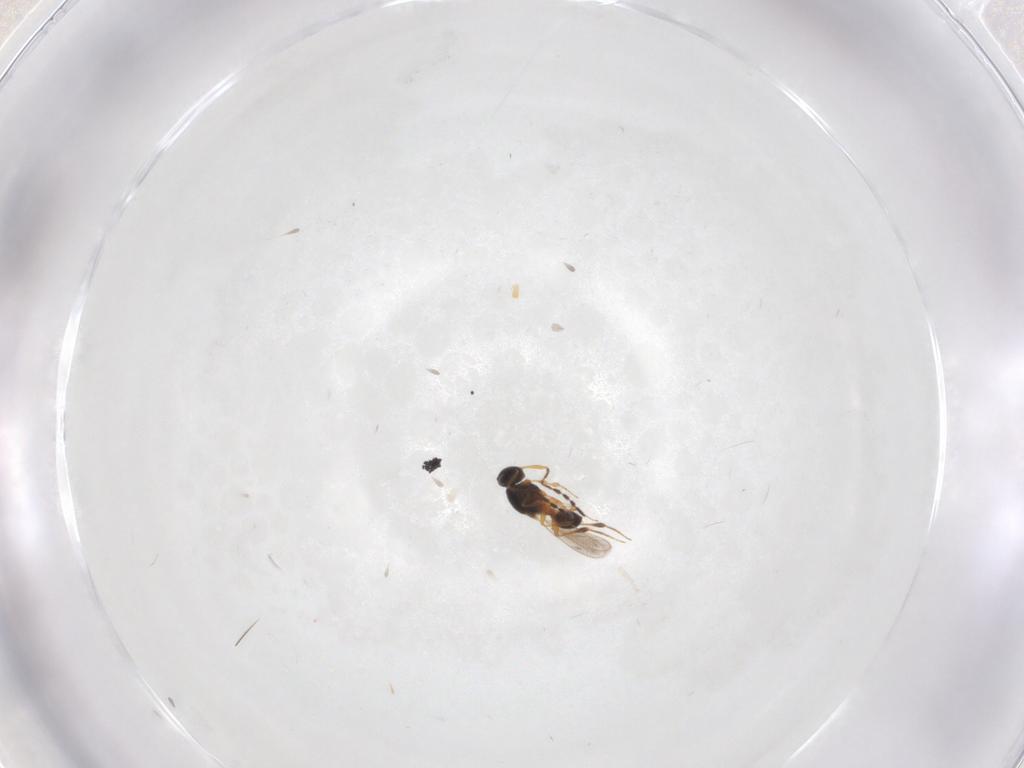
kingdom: Animalia
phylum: Arthropoda
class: Insecta
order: Hymenoptera
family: Platygastridae
